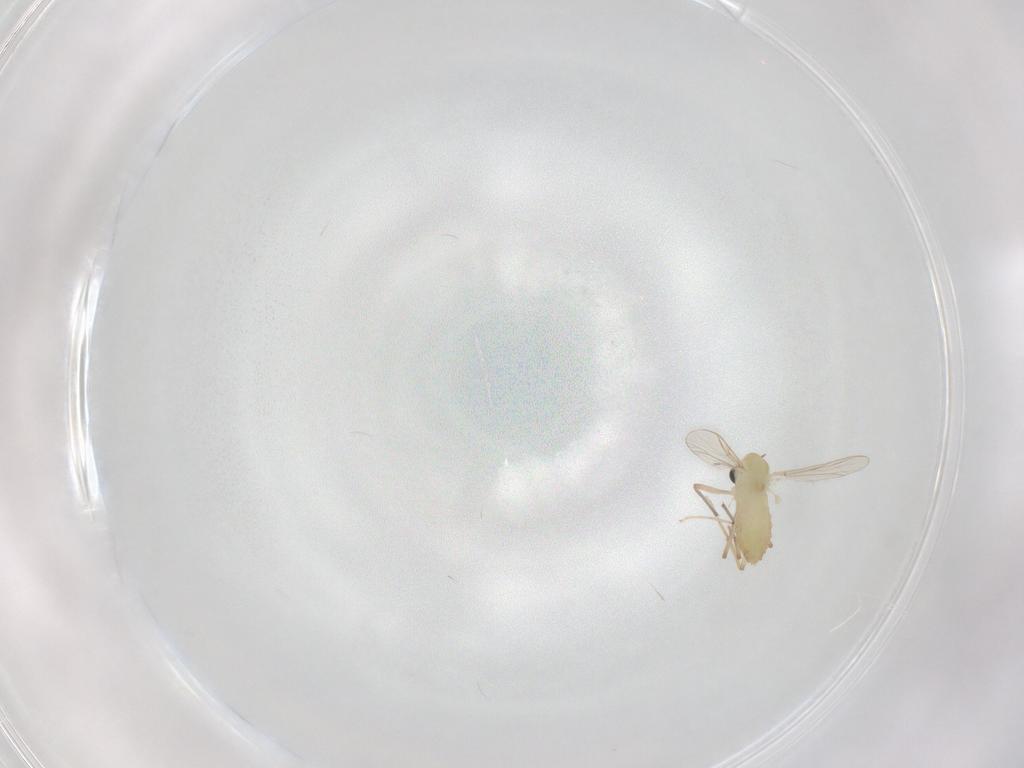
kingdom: Animalia
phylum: Arthropoda
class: Insecta
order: Diptera
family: Chironomidae
